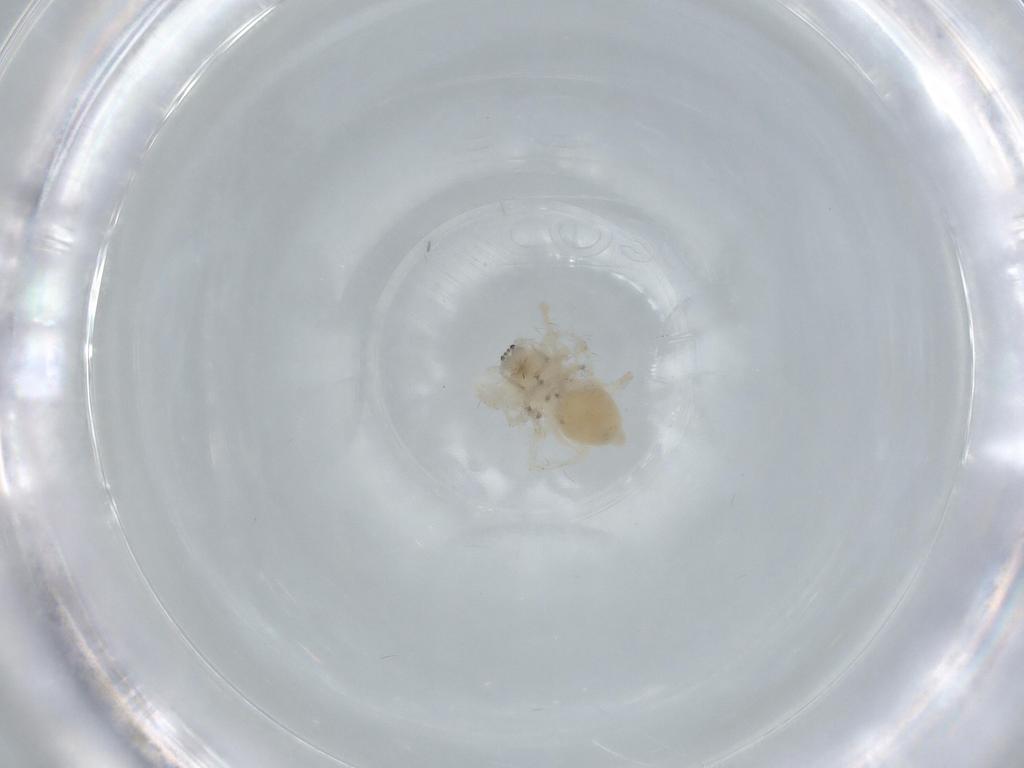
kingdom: Animalia
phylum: Arthropoda
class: Arachnida
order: Araneae
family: Anyphaenidae
